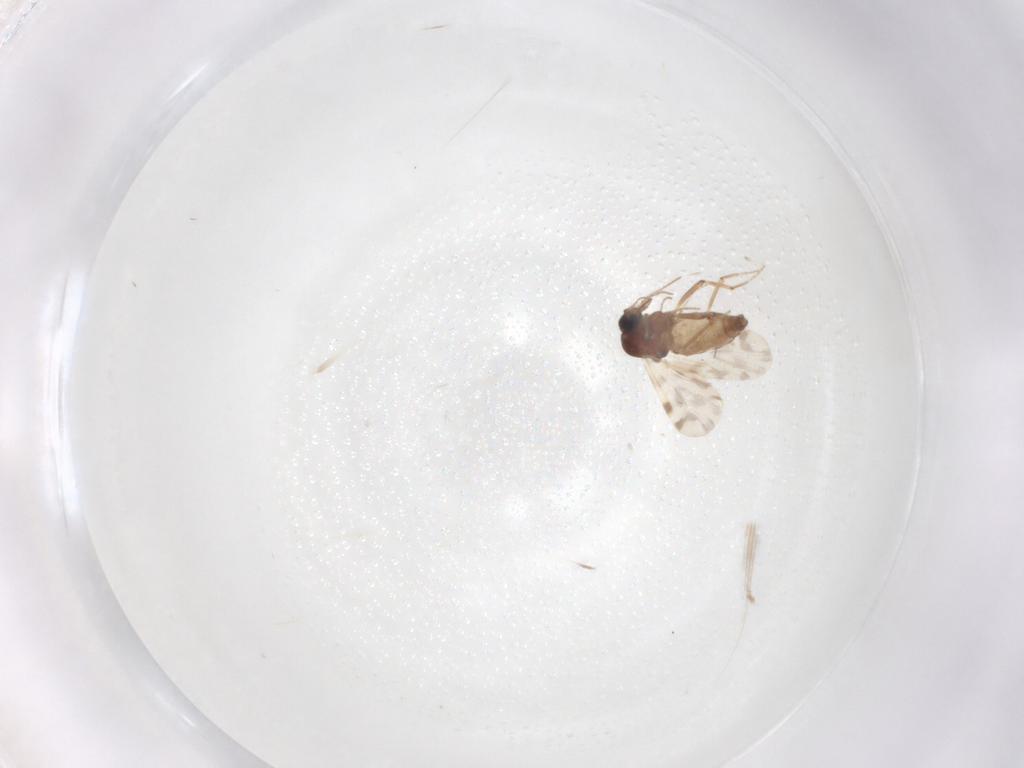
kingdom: Animalia
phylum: Arthropoda
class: Insecta
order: Diptera
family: Ceratopogonidae
